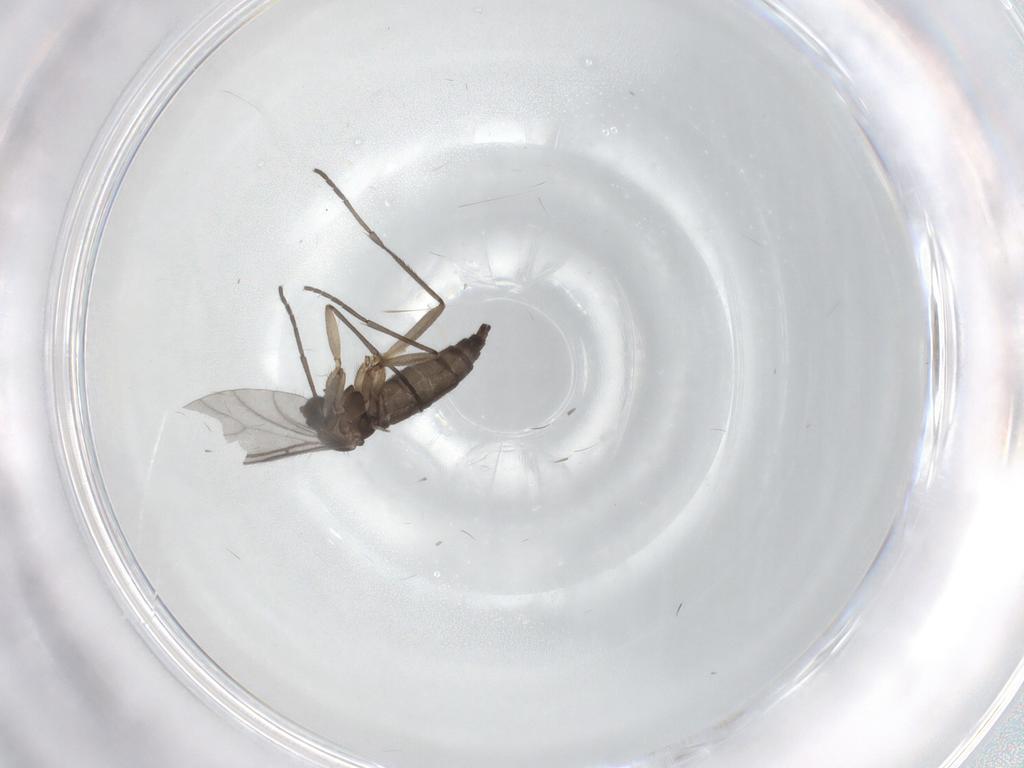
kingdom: Animalia
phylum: Arthropoda
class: Insecta
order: Diptera
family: Sciaridae
